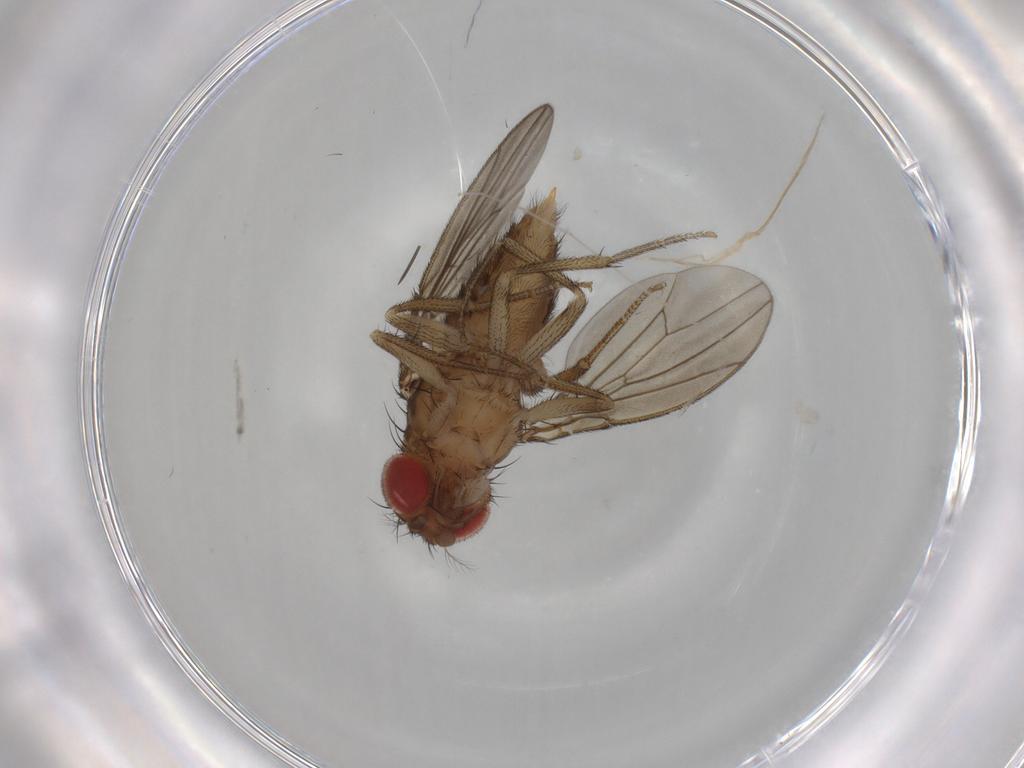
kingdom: Animalia
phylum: Arthropoda
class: Insecta
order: Diptera
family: Drosophilidae
